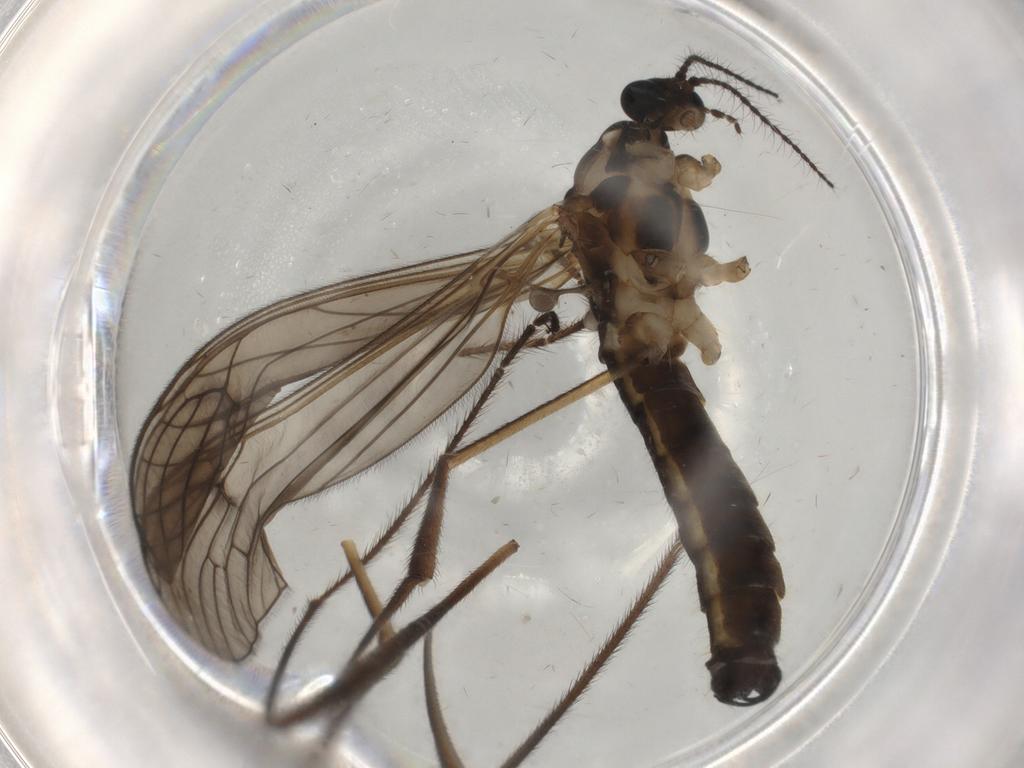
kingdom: Animalia
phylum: Arthropoda
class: Insecta
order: Diptera
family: Mycetophilidae
